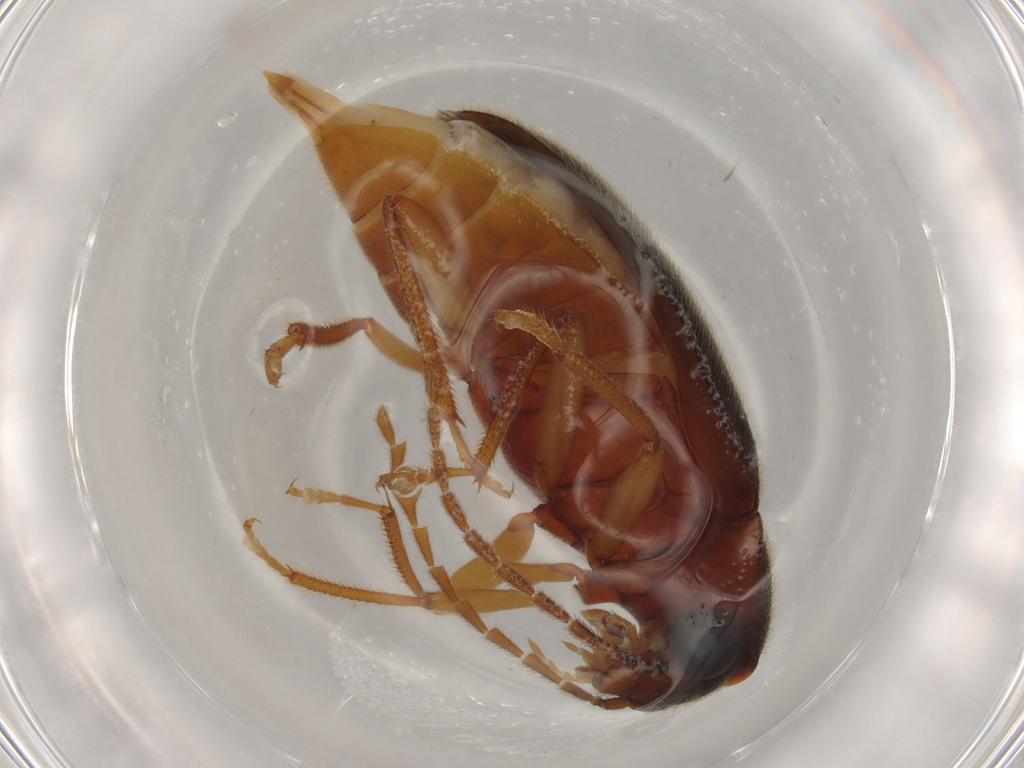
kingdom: Animalia
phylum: Arthropoda
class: Insecta
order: Coleoptera
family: Ptilodactylidae
